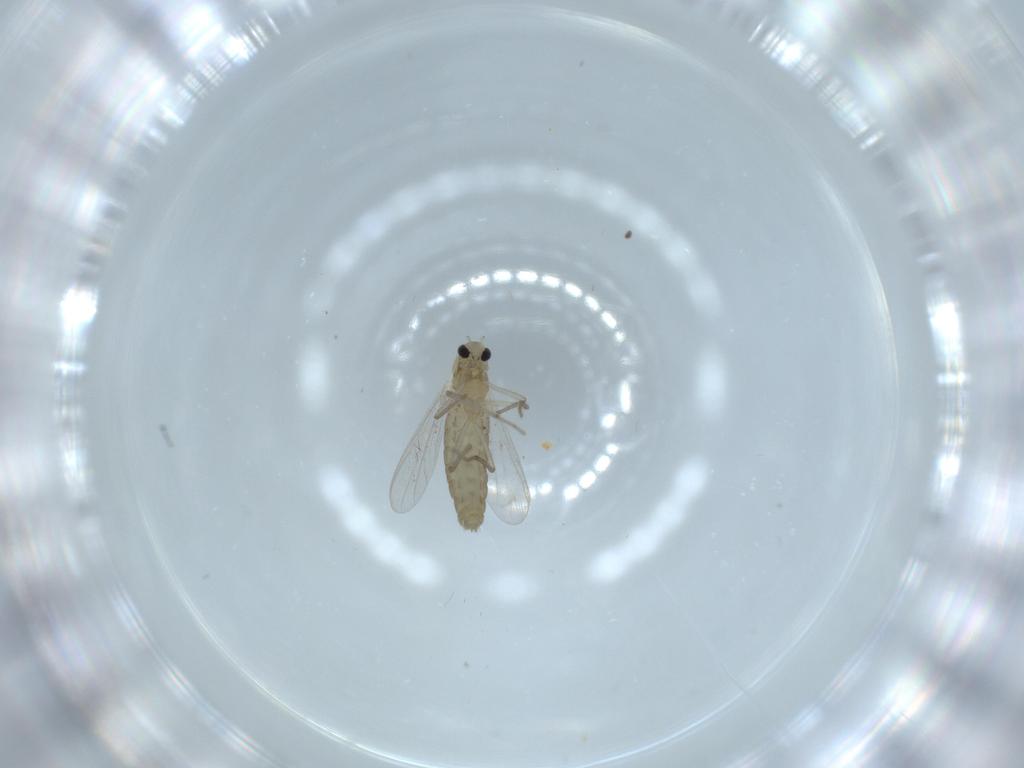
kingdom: Animalia
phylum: Arthropoda
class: Insecta
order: Diptera
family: Chironomidae
